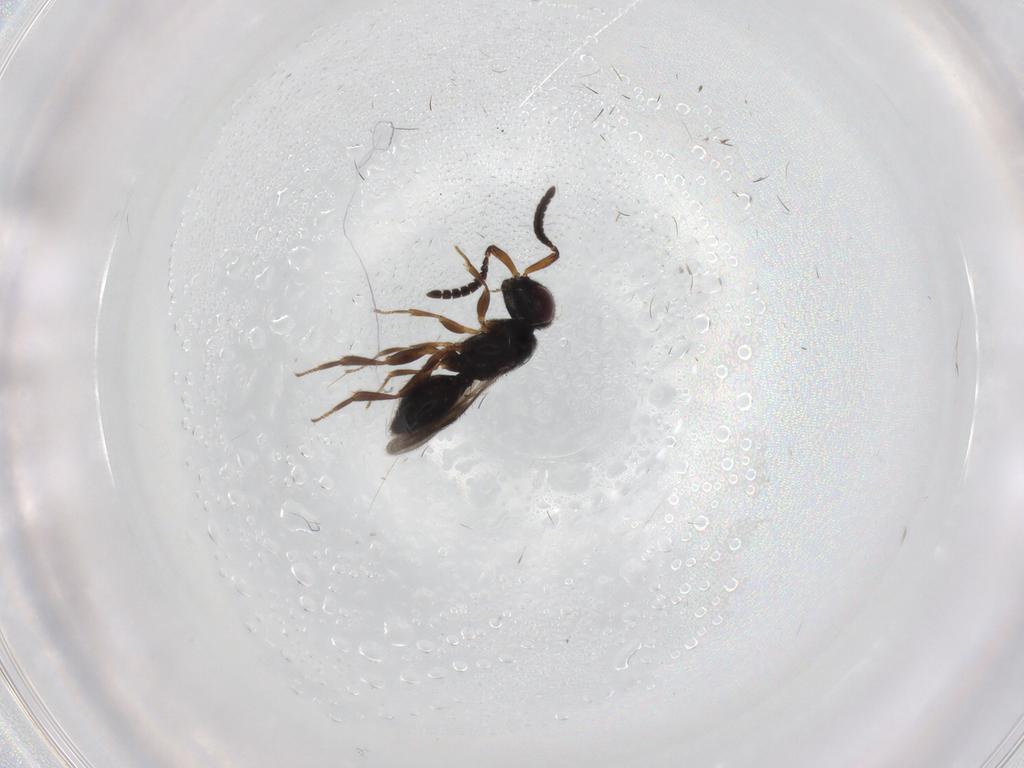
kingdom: Animalia
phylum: Arthropoda
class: Insecta
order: Hymenoptera
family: Megaspilidae
